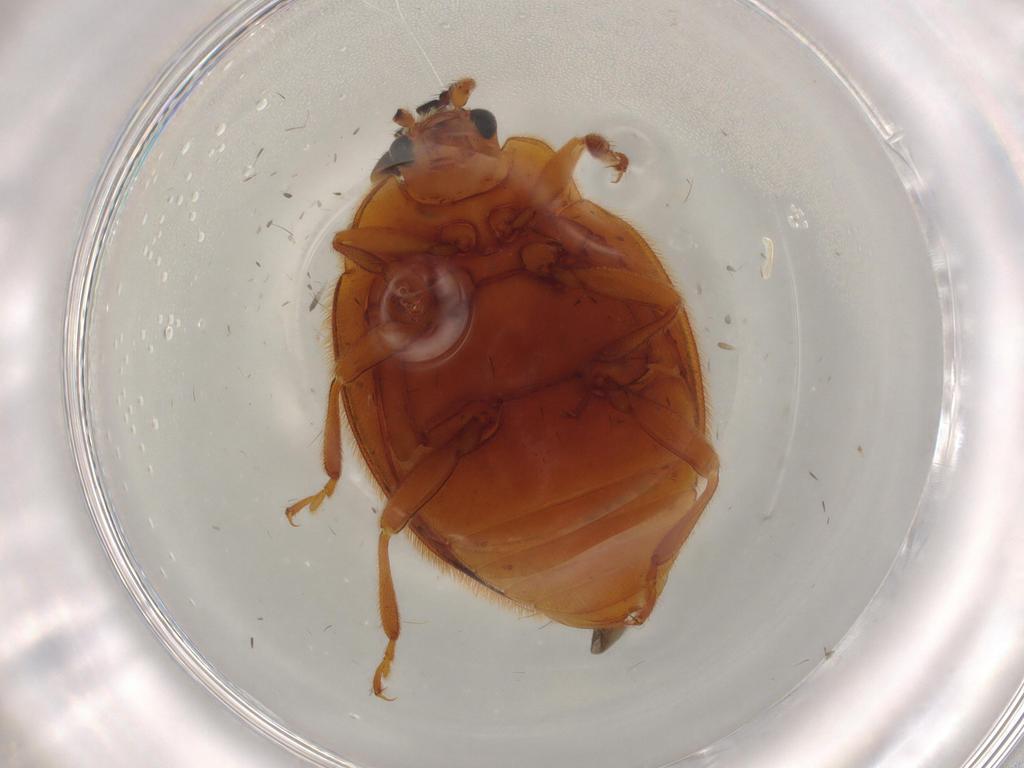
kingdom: Animalia
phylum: Arthropoda
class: Insecta
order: Coleoptera
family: Endomychidae
